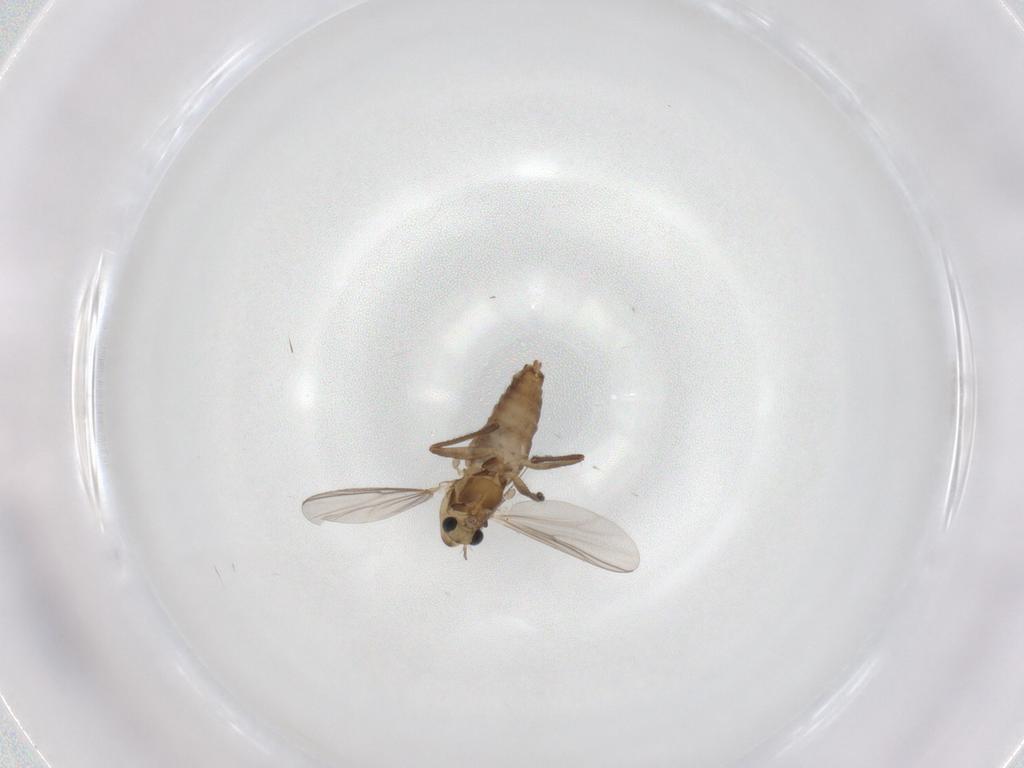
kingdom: Animalia
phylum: Arthropoda
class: Insecta
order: Diptera
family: Chironomidae
